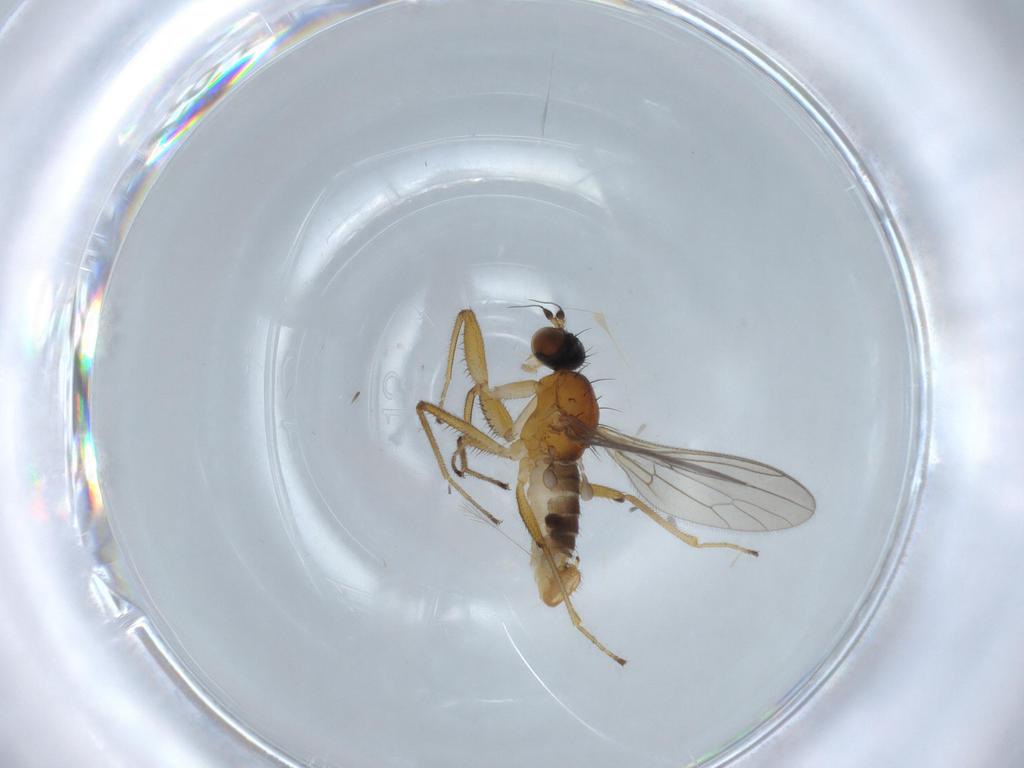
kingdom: Animalia
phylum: Arthropoda
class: Insecta
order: Diptera
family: Empididae
